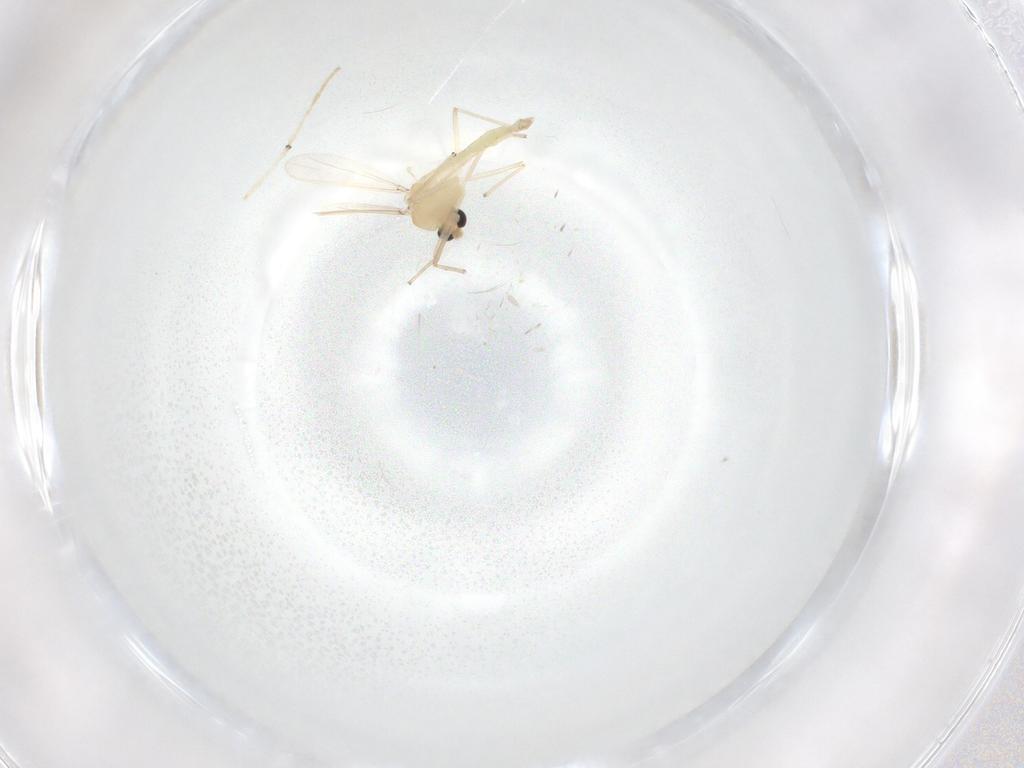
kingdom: Animalia
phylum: Arthropoda
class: Insecta
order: Diptera
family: Chironomidae
